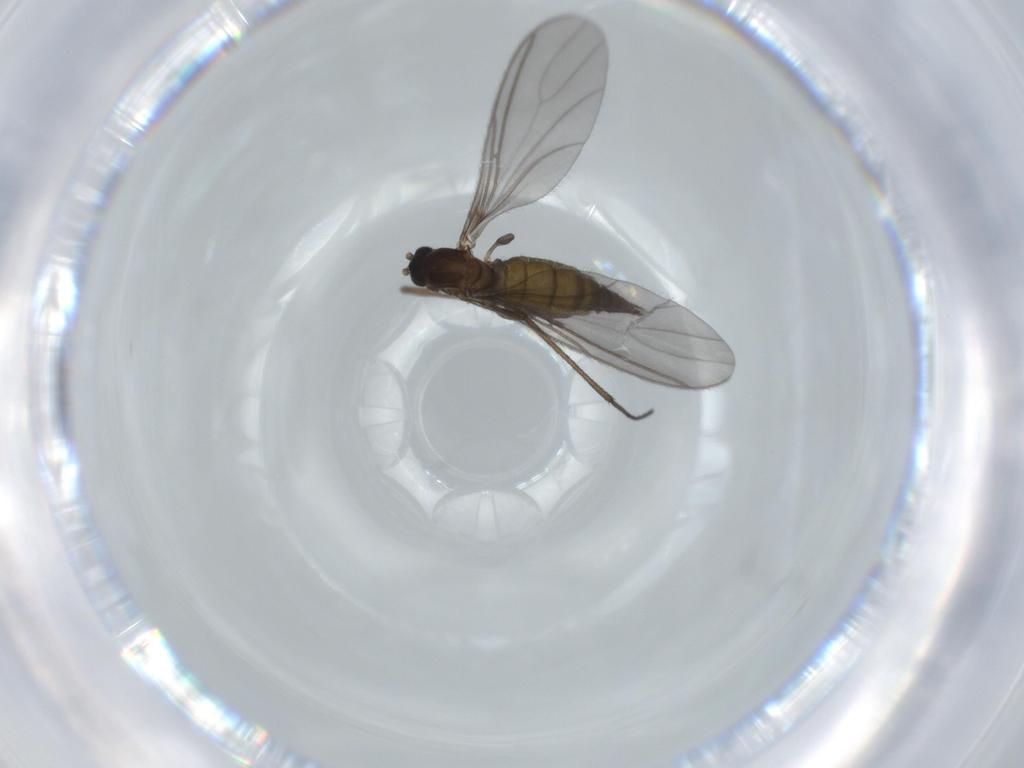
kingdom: Animalia
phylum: Arthropoda
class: Insecta
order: Diptera
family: Sciaridae
